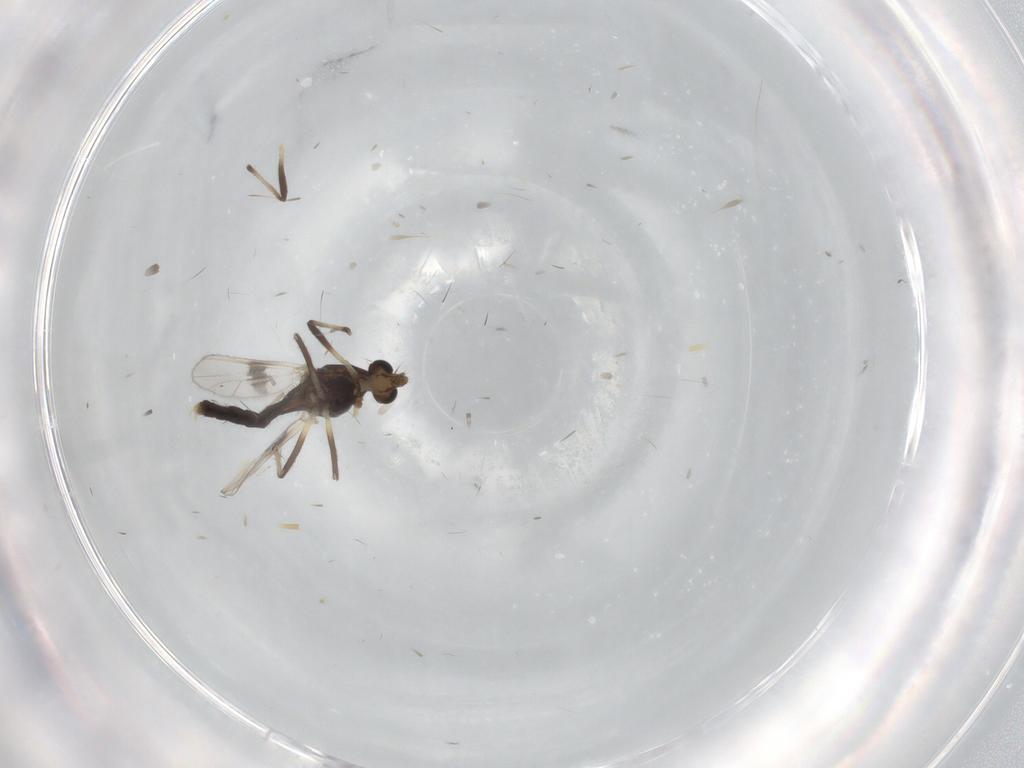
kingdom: Animalia
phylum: Arthropoda
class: Insecta
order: Diptera
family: Chironomidae
